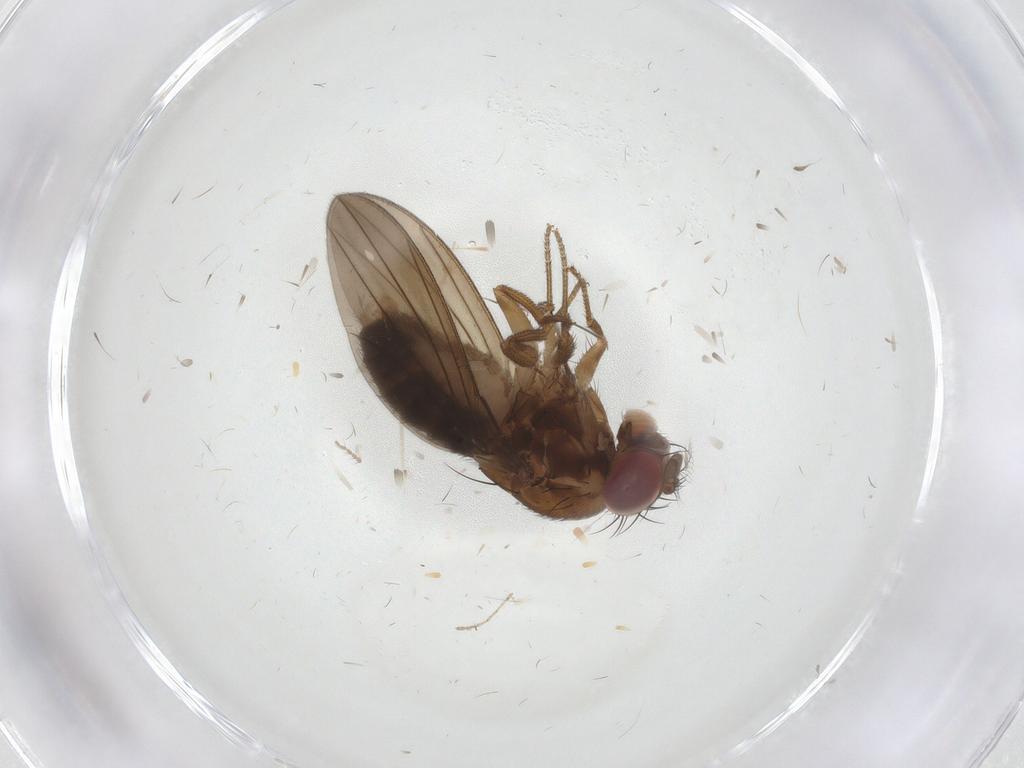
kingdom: Animalia
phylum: Arthropoda
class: Insecta
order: Diptera
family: Drosophilidae
